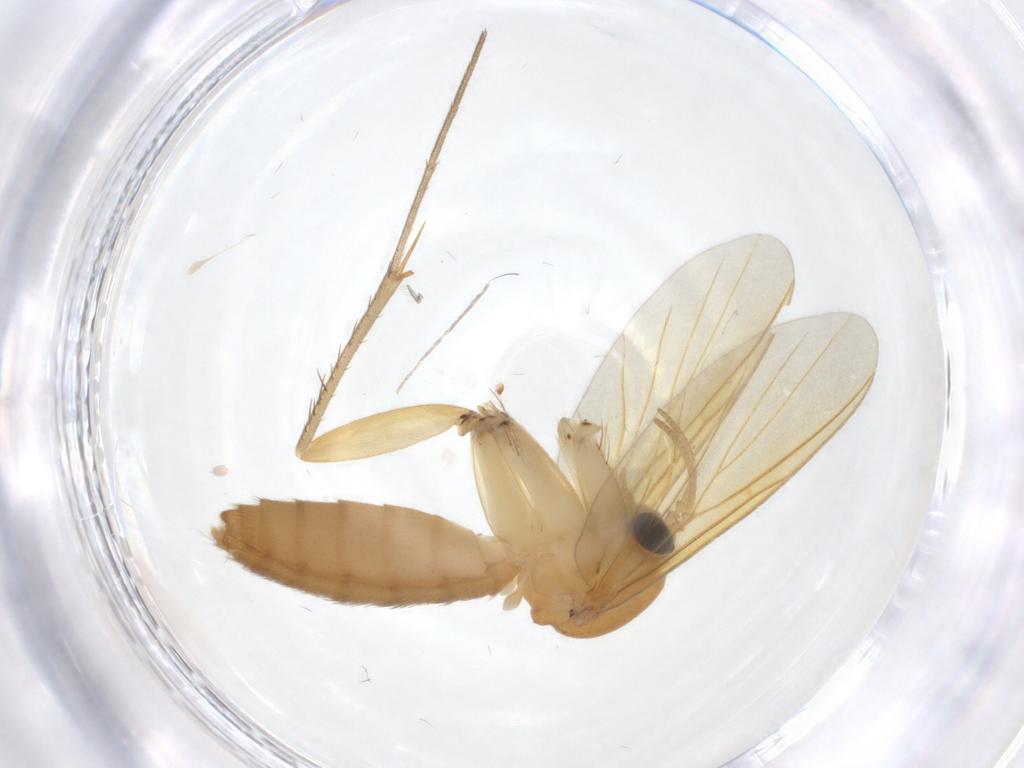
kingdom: Animalia
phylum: Arthropoda
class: Insecta
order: Diptera
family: Mycetophilidae
